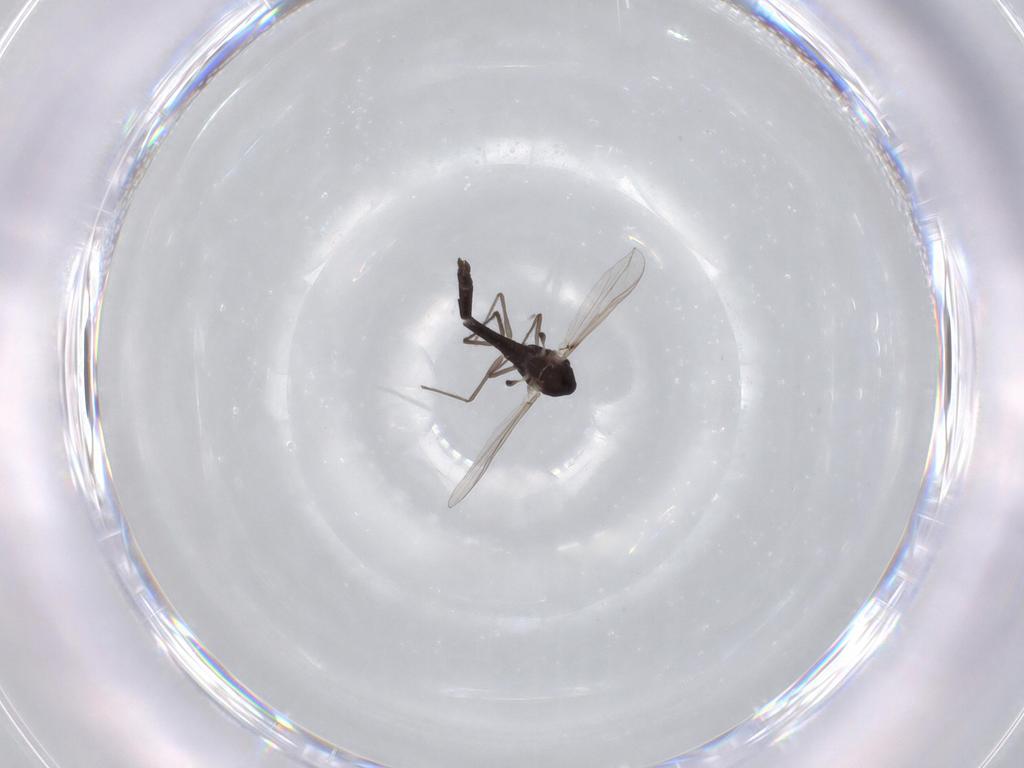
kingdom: Animalia
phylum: Arthropoda
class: Insecta
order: Diptera
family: Chironomidae
